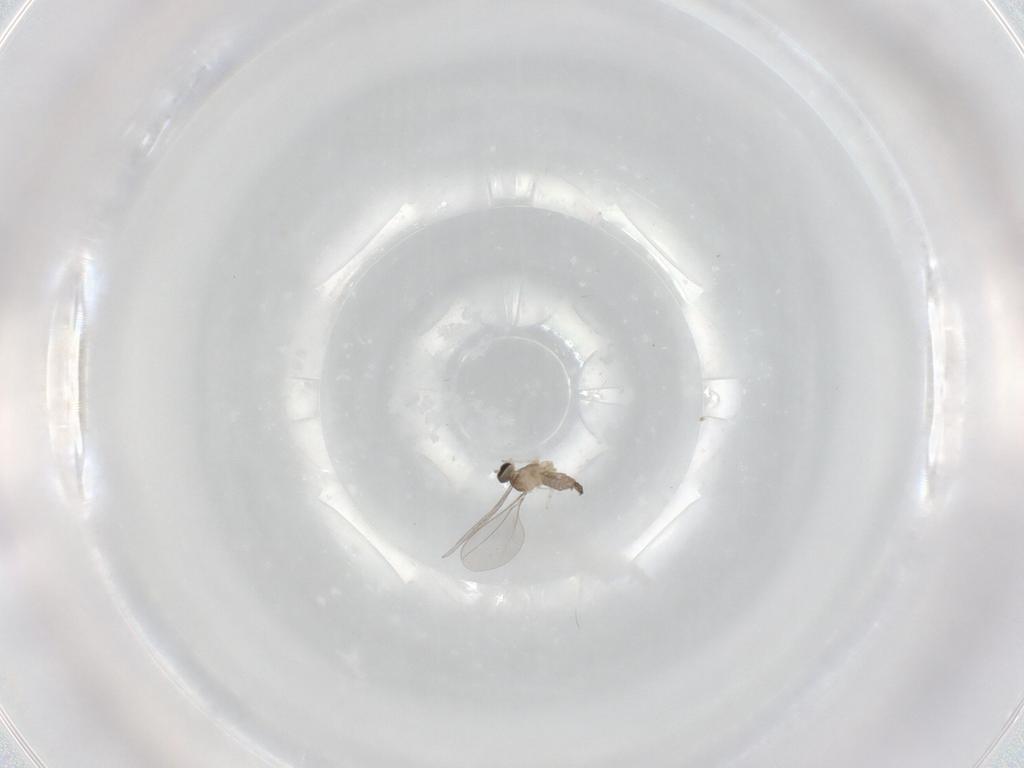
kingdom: Animalia
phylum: Arthropoda
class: Insecta
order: Diptera
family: Cecidomyiidae
